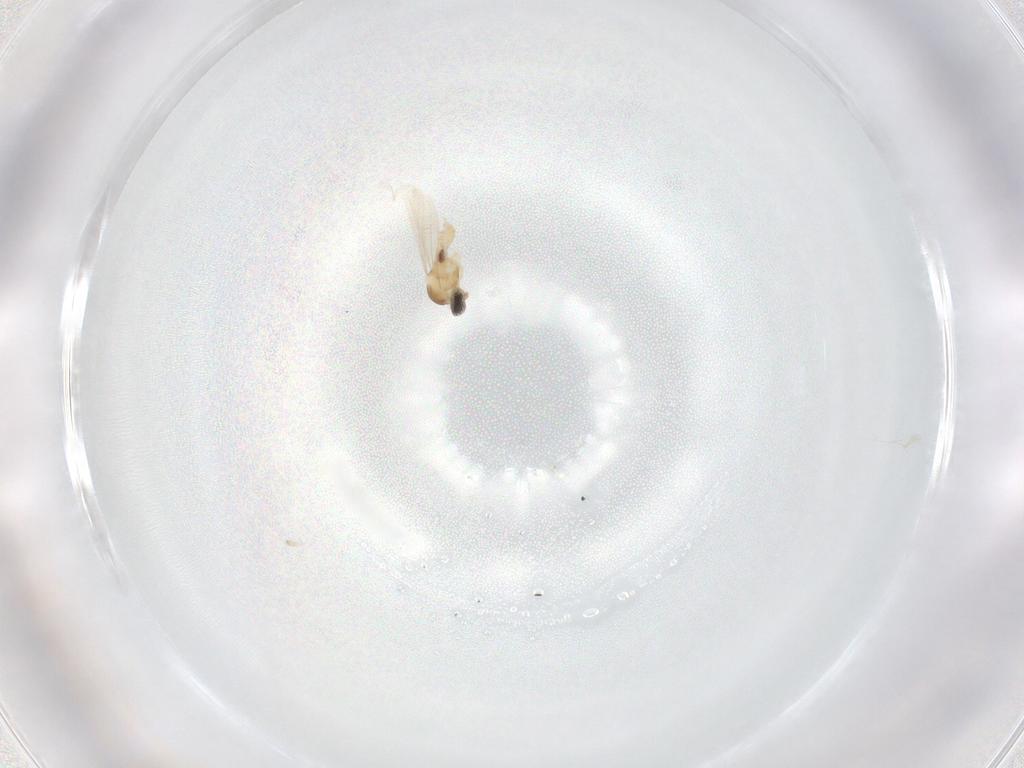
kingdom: Animalia
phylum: Arthropoda
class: Insecta
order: Diptera
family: Cecidomyiidae
